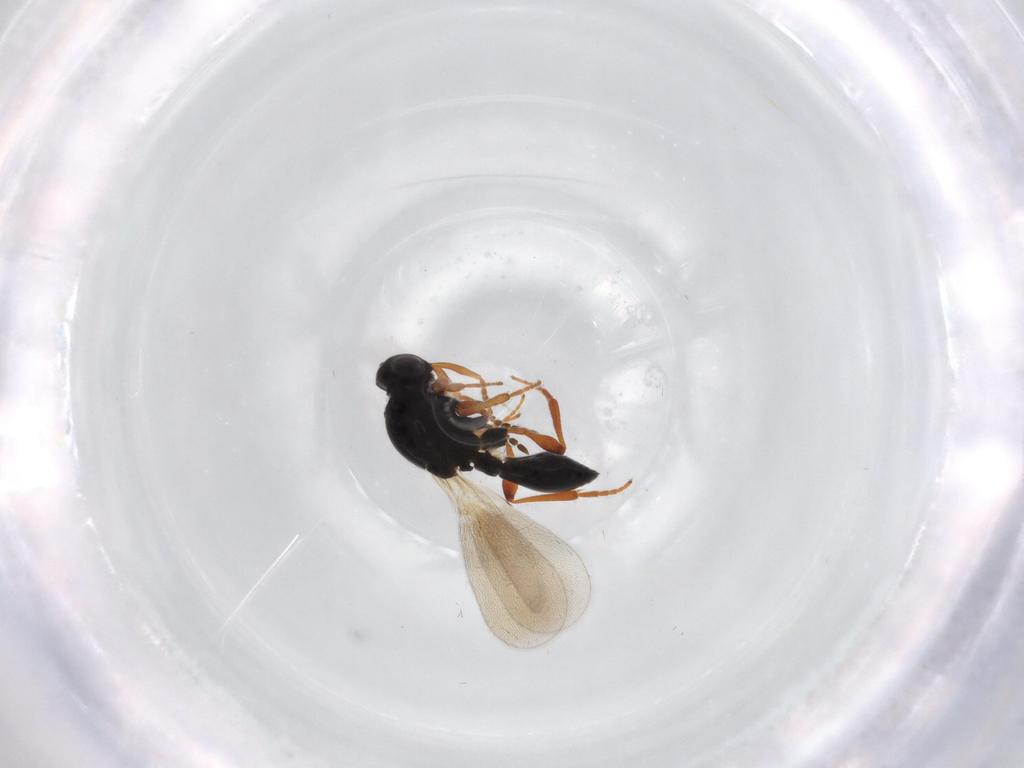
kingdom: Animalia
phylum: Arthropoda
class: Insecta
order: Hymenoptera
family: Platygastridae
